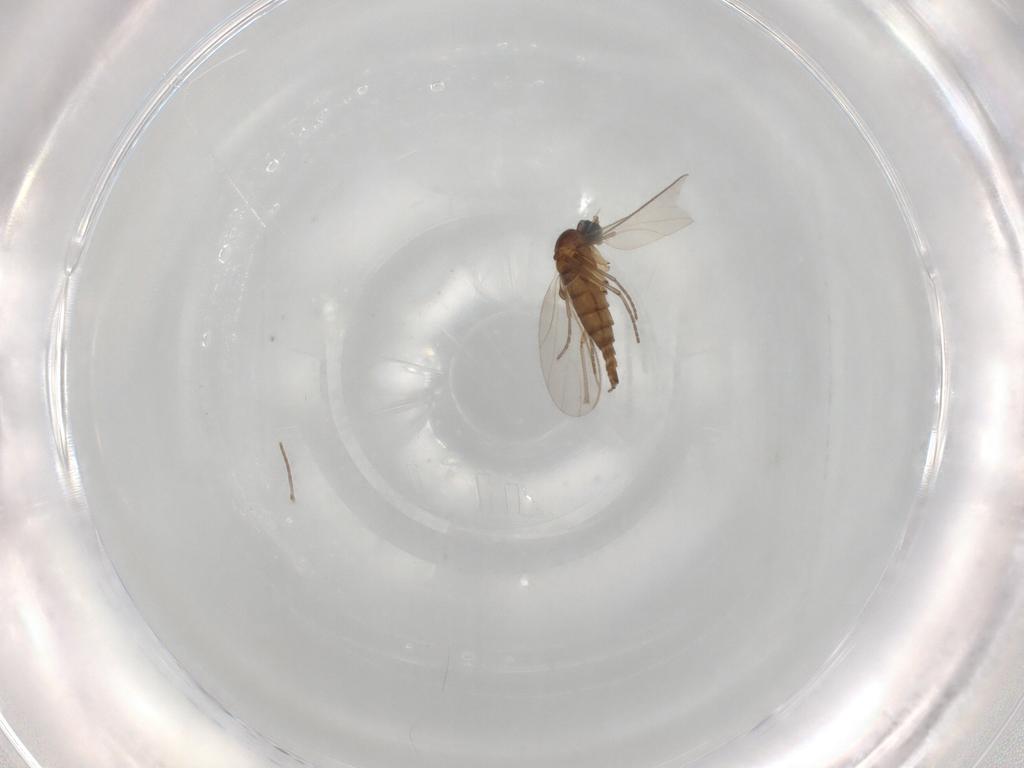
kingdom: Animalia
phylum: Arthropoda
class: Insecta
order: Diptera
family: Sciaridae
